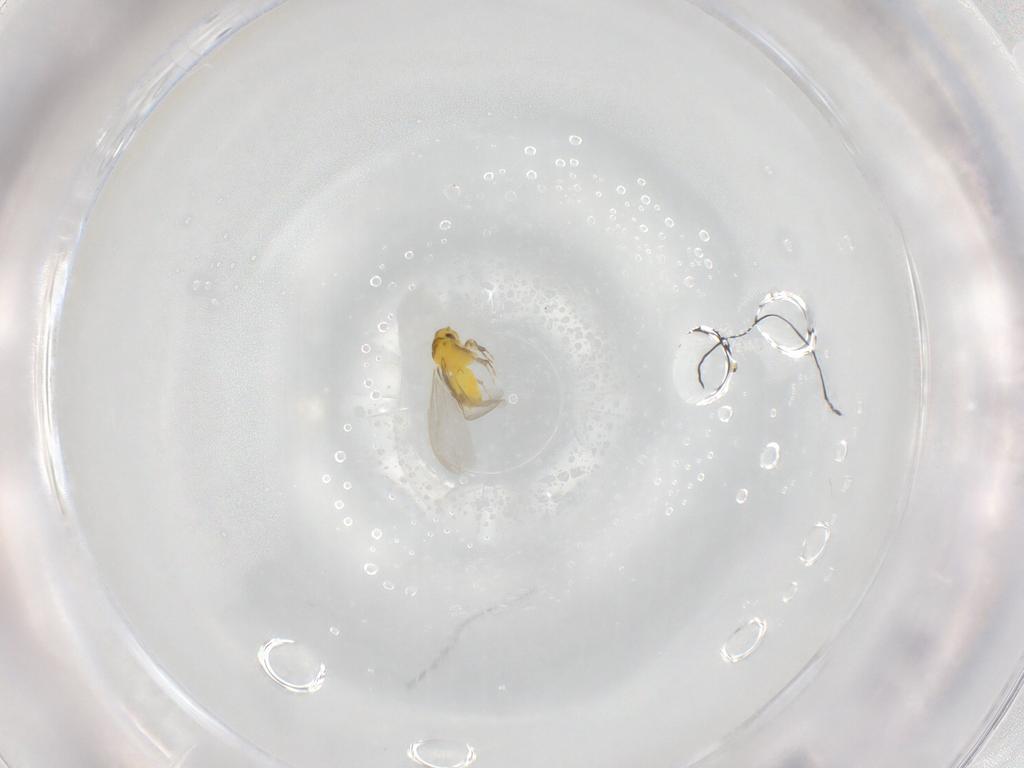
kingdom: Animalia
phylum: Arthropoda
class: Insecta
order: Hemiptera
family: Aleyrodidae
